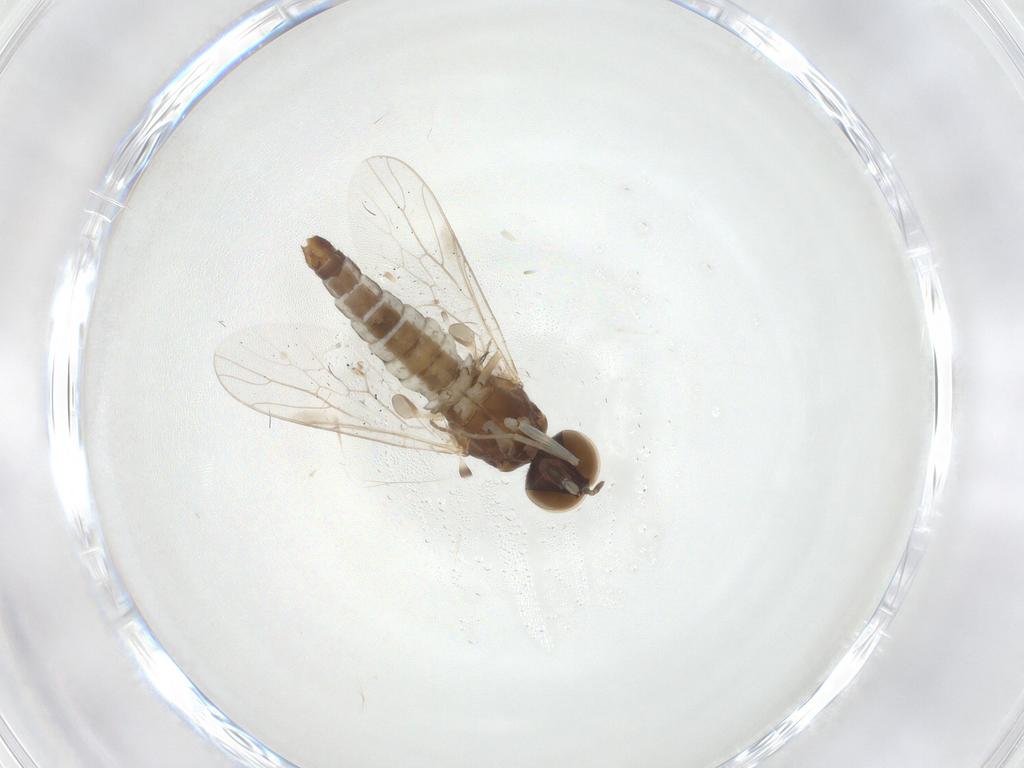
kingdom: Animalia
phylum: Arthropoda
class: Insecta
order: Diptera
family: Scenopinidae
